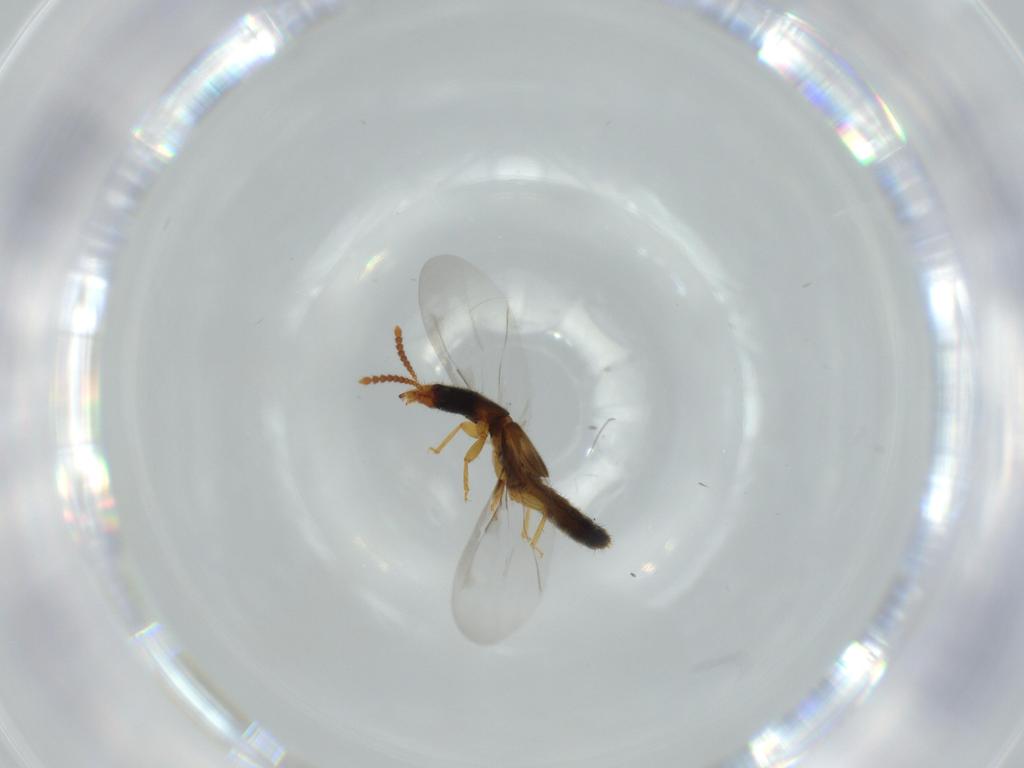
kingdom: Animalia
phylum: Arthropoda
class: Insecta
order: Coleoptera
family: Staphylinidae
